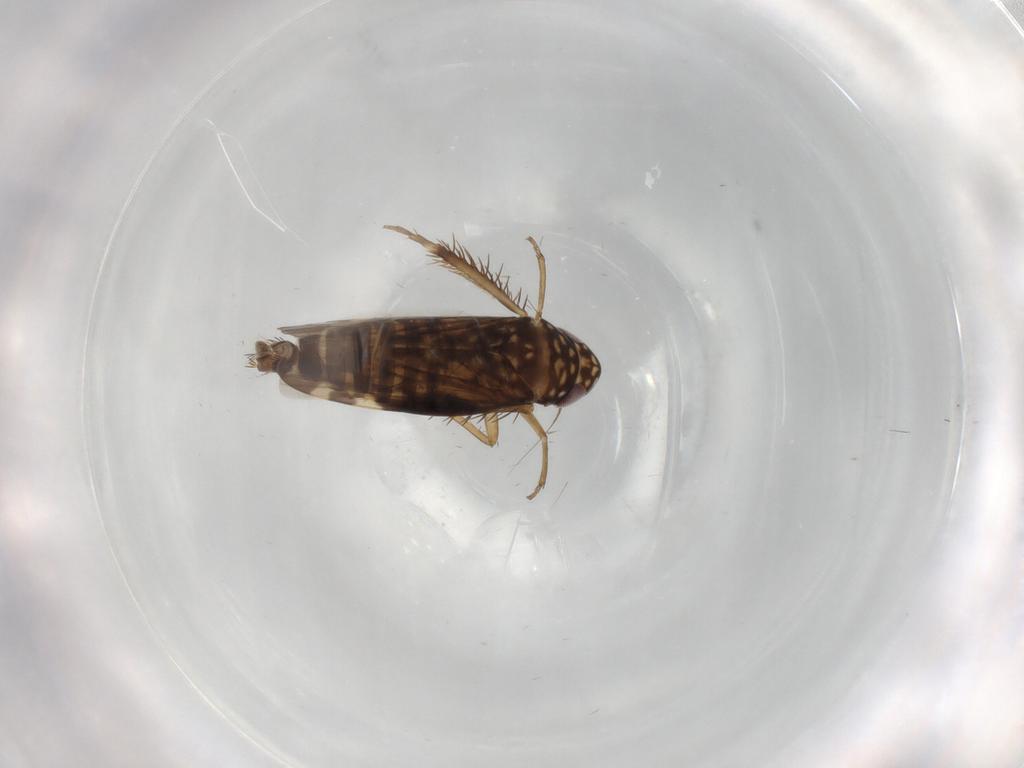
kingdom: Animalia
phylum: Arthropoda
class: Insecta
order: Hemiptera
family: Cicadellidae
